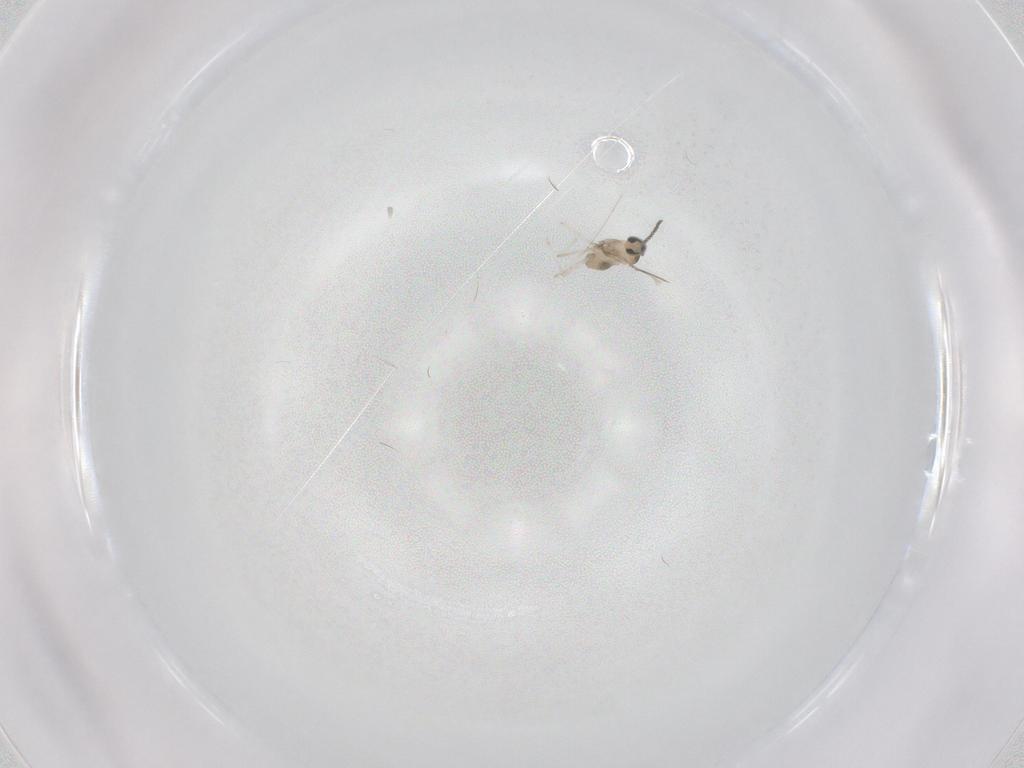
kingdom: Animalia
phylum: Arthropoda
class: Insecta
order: Diptera
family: Cecidomyiidae
